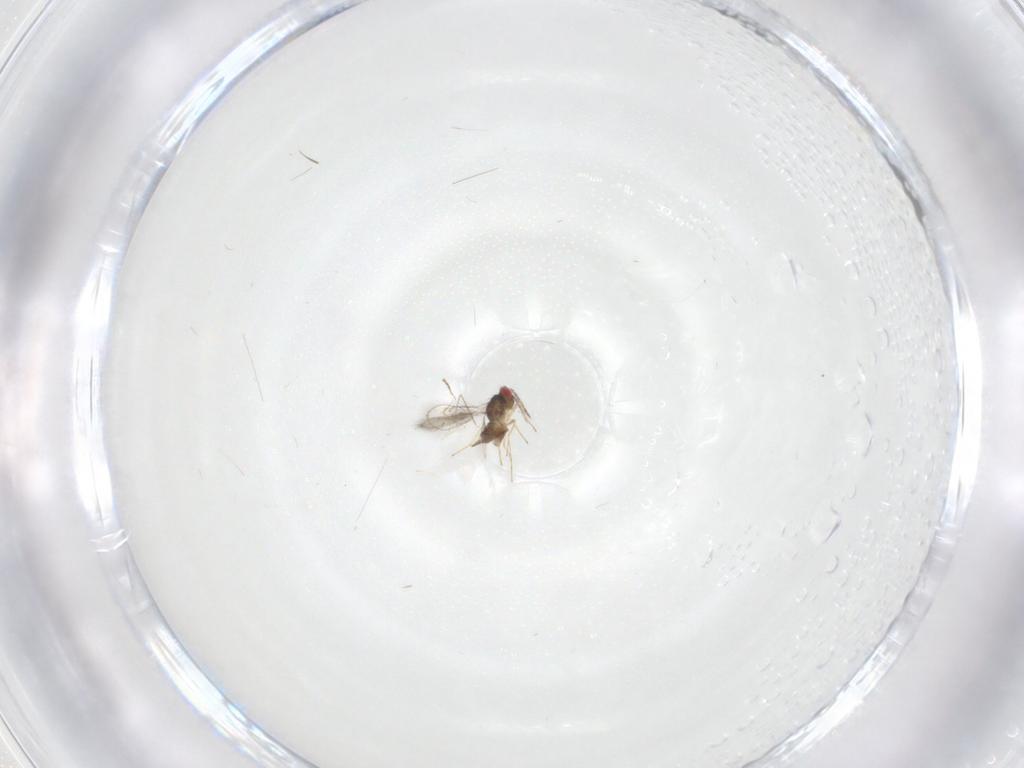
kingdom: Animalia
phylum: Arthropoda
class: Insecta
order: Hymenoptera
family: Eulophidae
